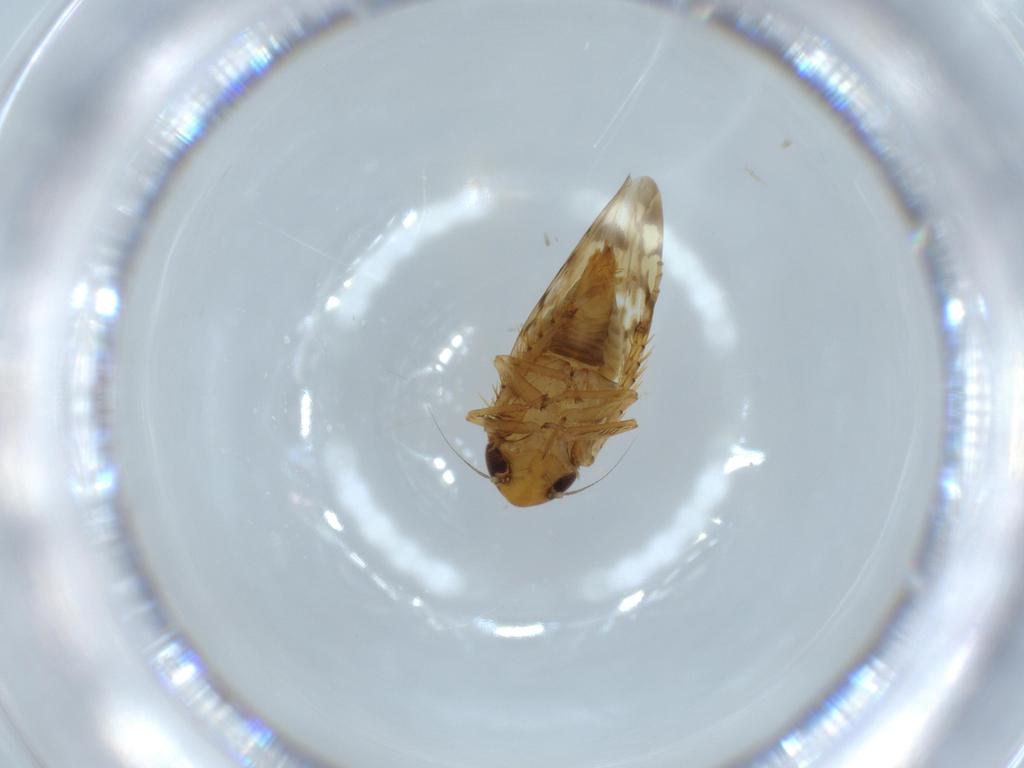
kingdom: Animalia
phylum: Arthropoda
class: Insecta
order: Hemiptera
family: Cicadellidae
